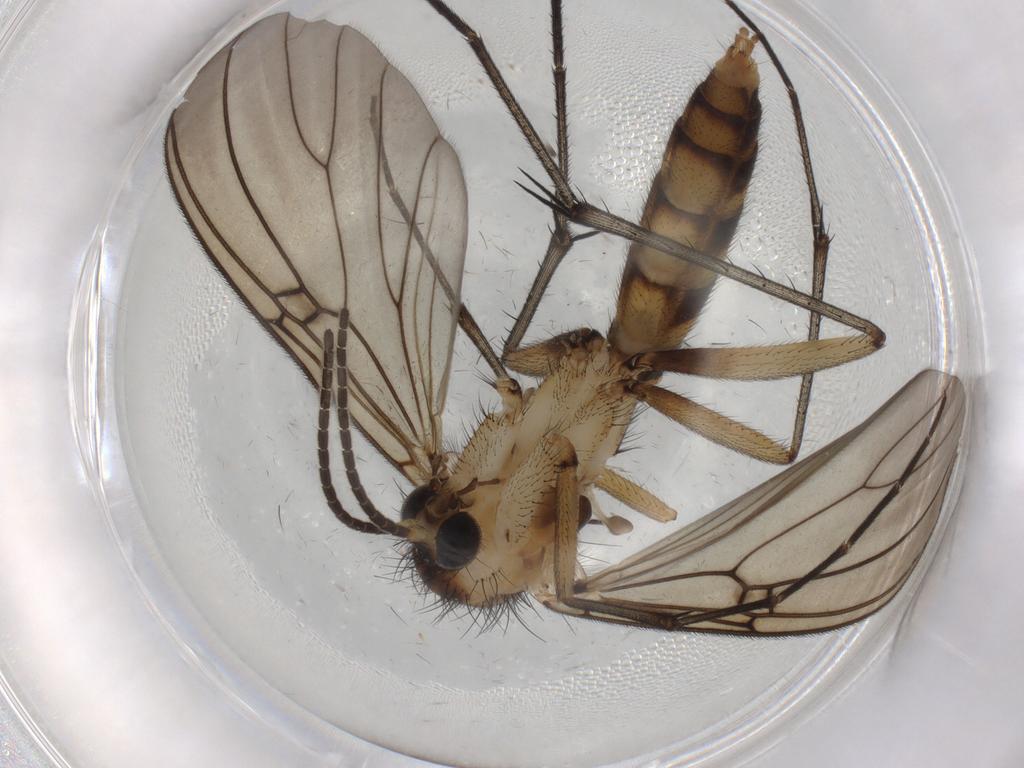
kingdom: Animalia
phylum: Arthropoda
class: Insecta
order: Diptera
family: Mycetophilidae
